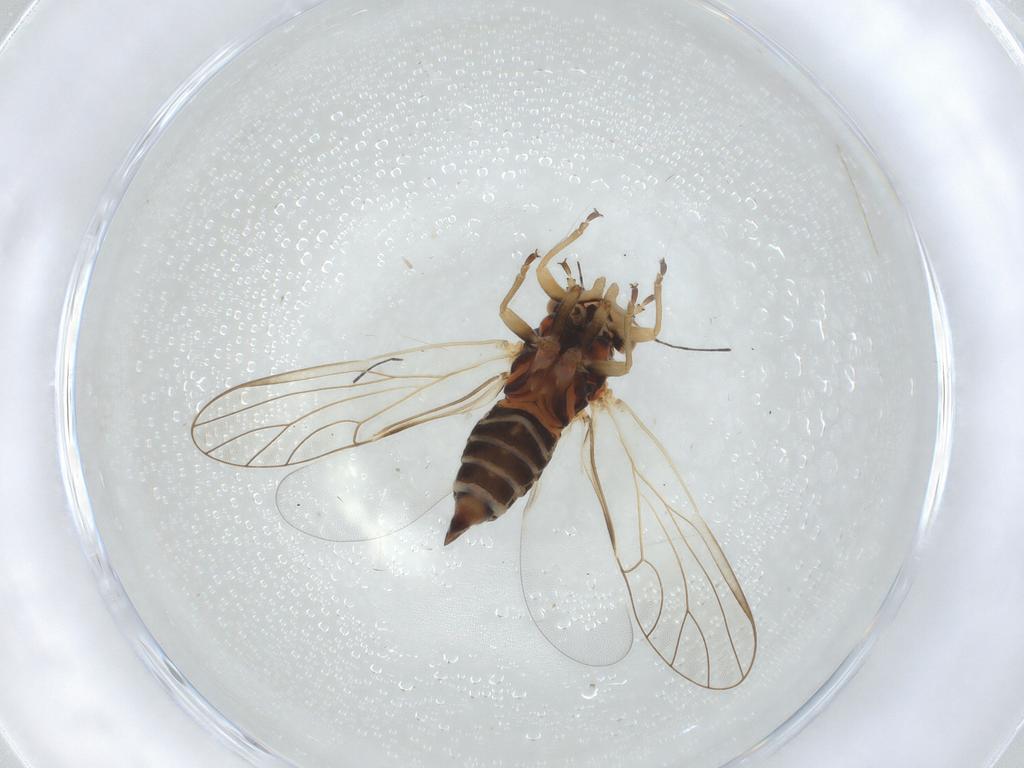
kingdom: Animalia
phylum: Arthropoda
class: Insecta
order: Hemiptera
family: Psyllidae
